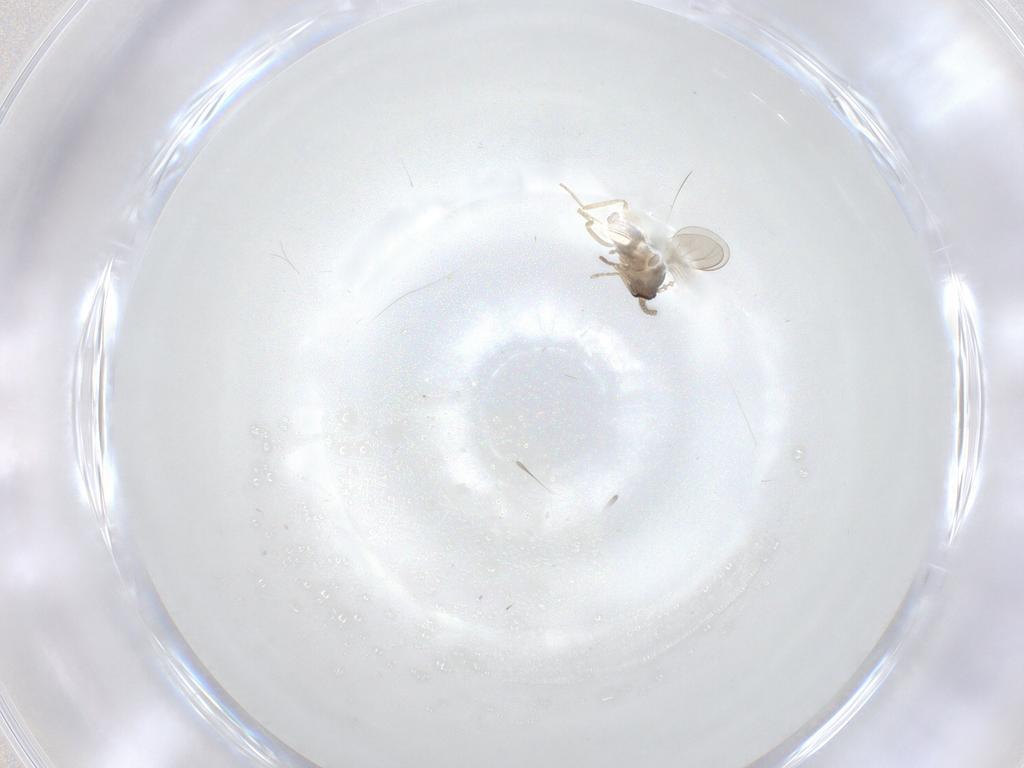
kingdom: Animalia
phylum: Arthropoda
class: Insecta
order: Diptera
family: Cecidomyiidae
